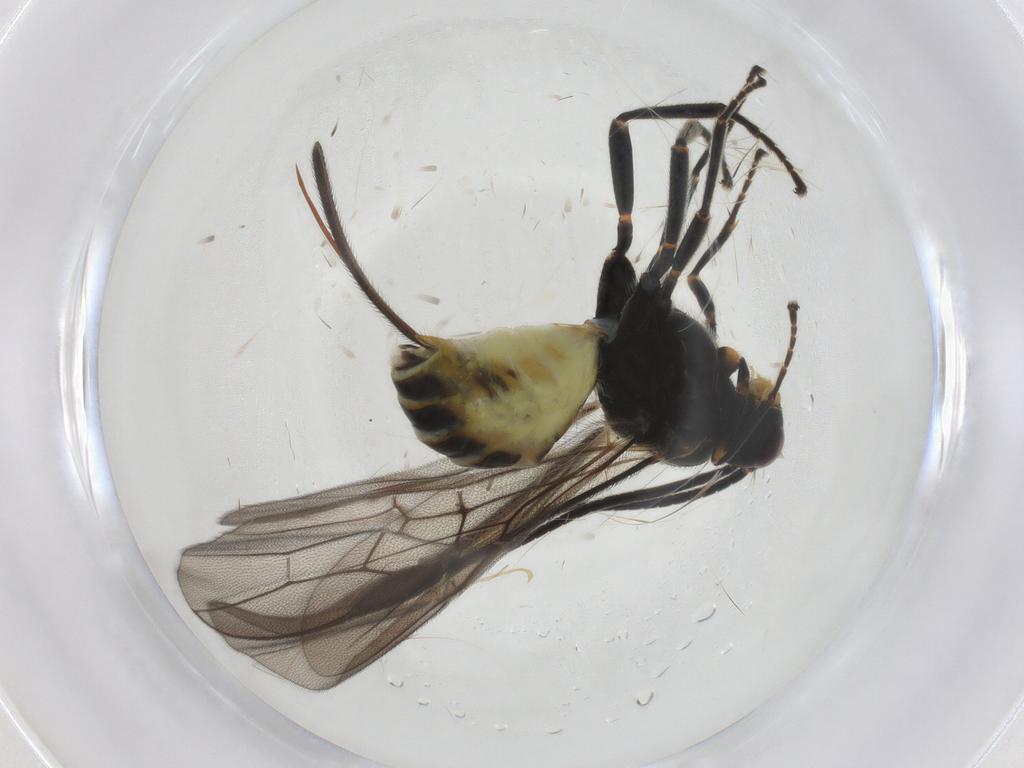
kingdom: Animalia
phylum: Arthropoda
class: Insecta
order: Hymenoptera
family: Braconidae
